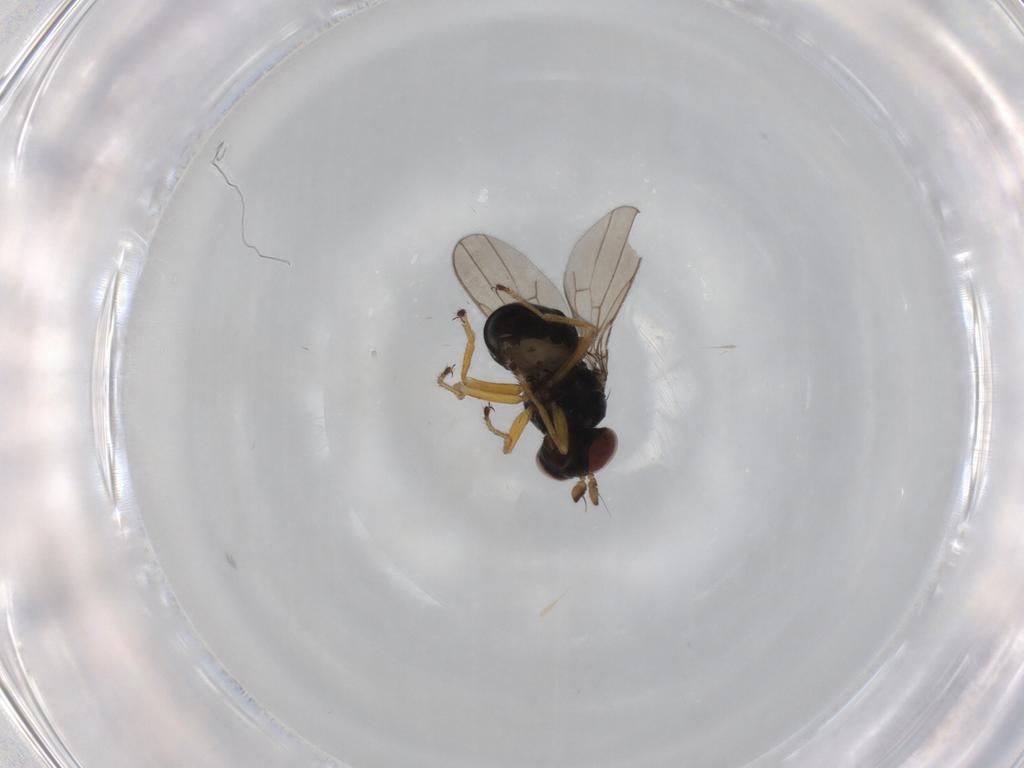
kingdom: Animalia
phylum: Arthropoda
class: Insecta
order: Diptera
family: Ephydridae
